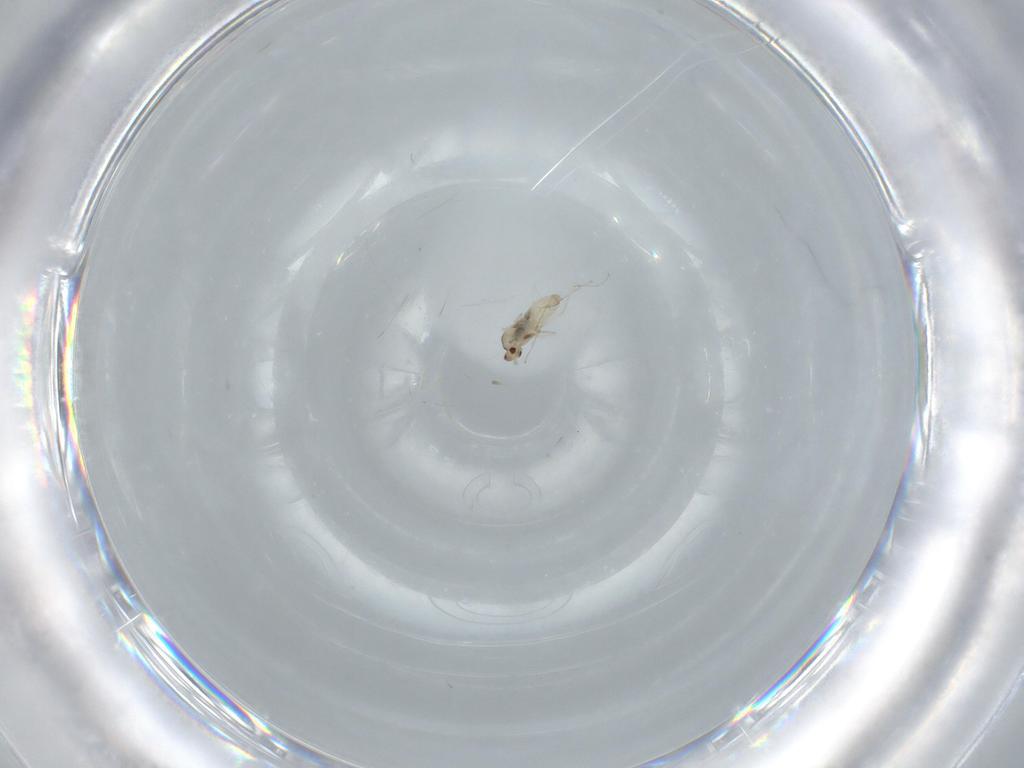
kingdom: Animalia
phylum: Arthropoda
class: Insecta
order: Diptera
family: Cecidomyiidae
